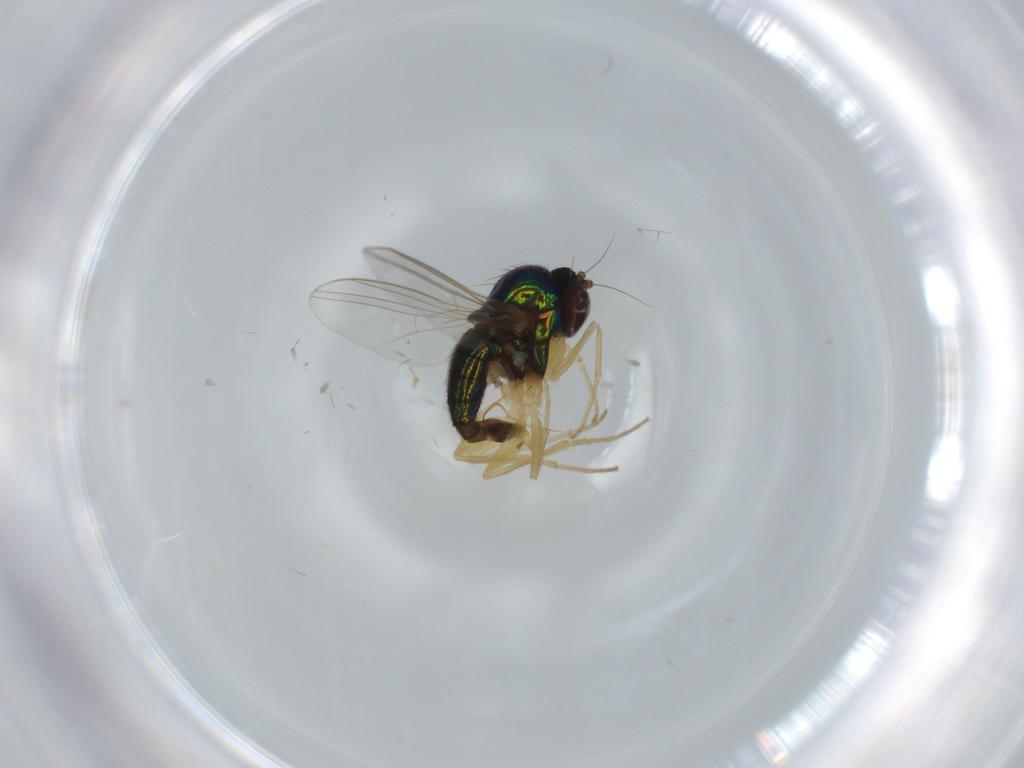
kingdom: Animalia
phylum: Arthropoda
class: Insecta
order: Diptera
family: Dolichopodidae
